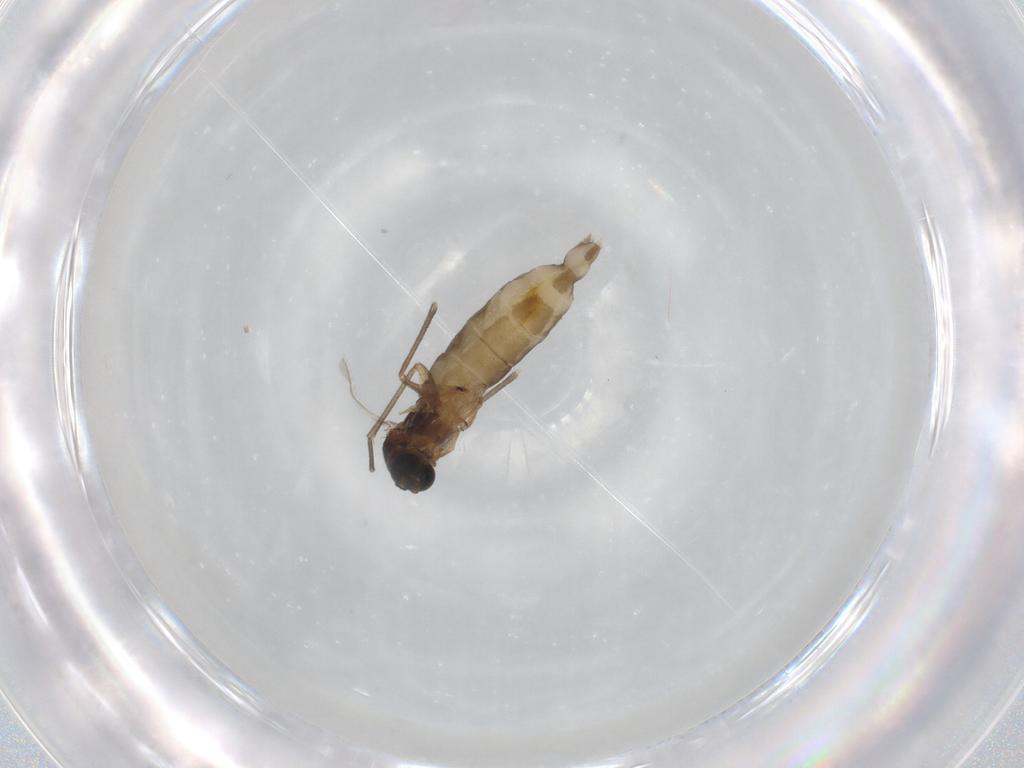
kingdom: Animalia
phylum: Arthropoda
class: Insecta
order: Diptera
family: Sciaridae
